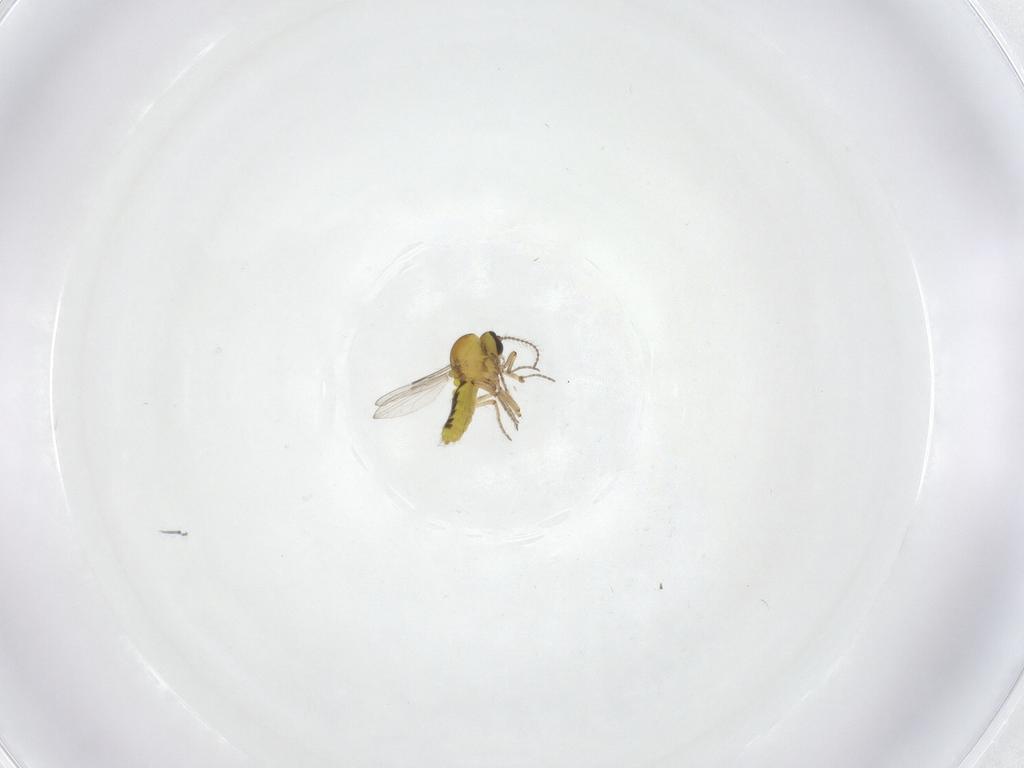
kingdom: Animalia
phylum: Arthropoda
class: Insecta
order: Diptera
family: Ceratopogonidae
